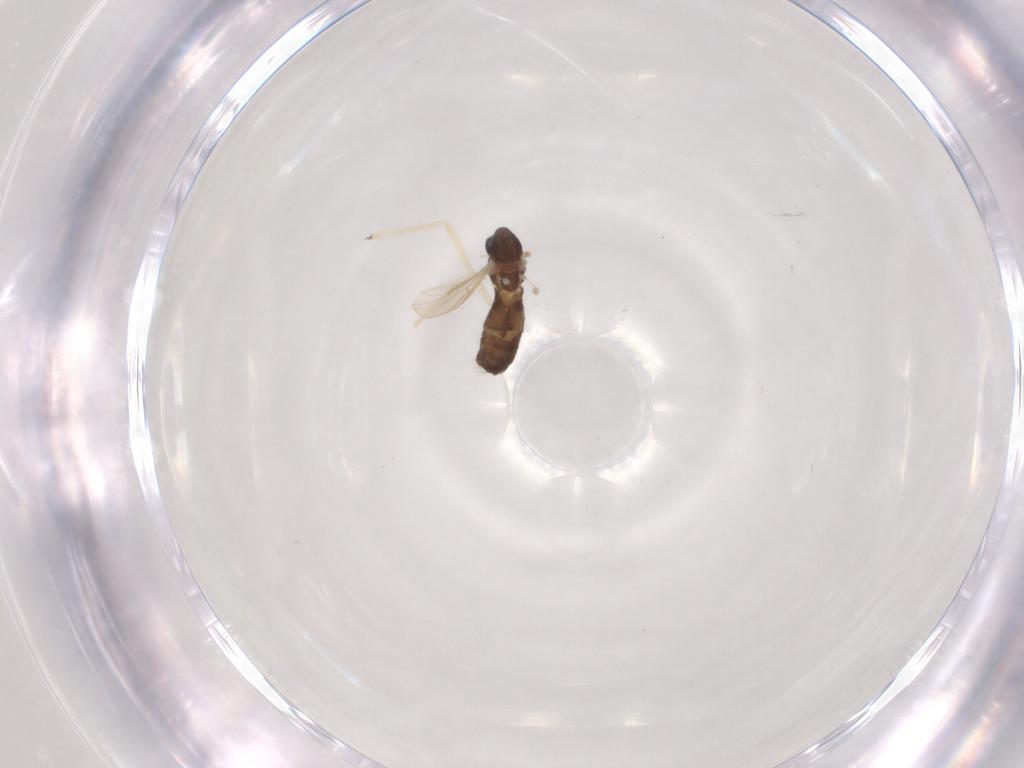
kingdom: Animalia
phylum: Arthropoda
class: Insecta
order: Diptera
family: Chironomidae
